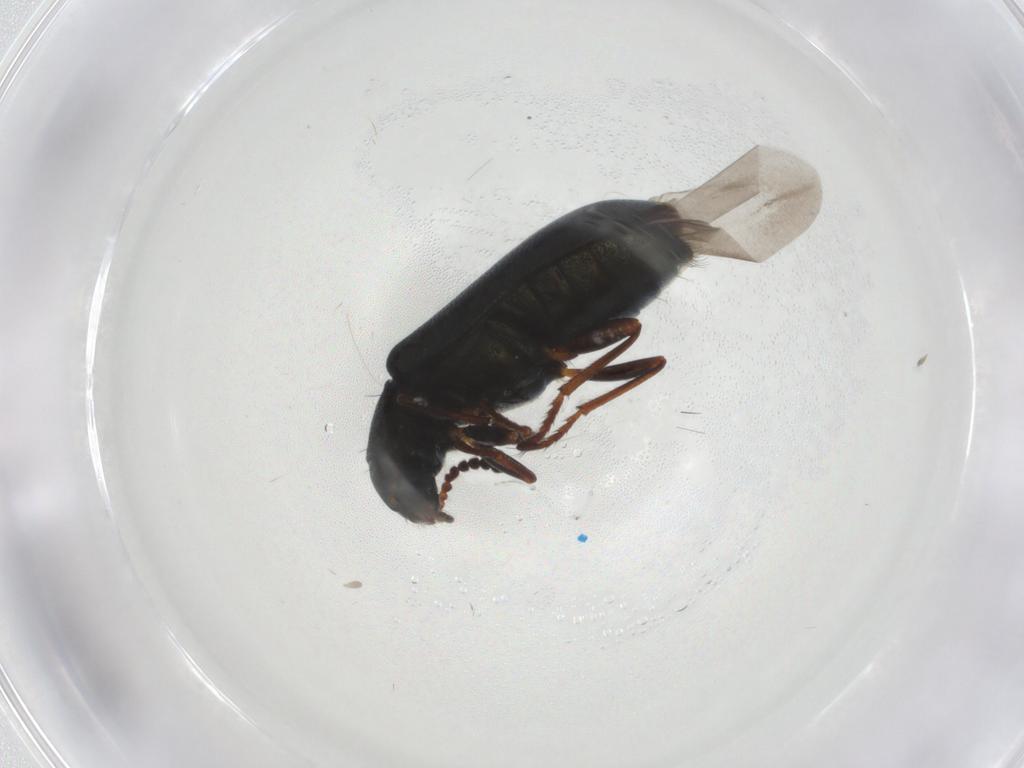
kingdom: Animalia
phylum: Arthropoda
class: Insecta
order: Coleoptera
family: Melyridae
